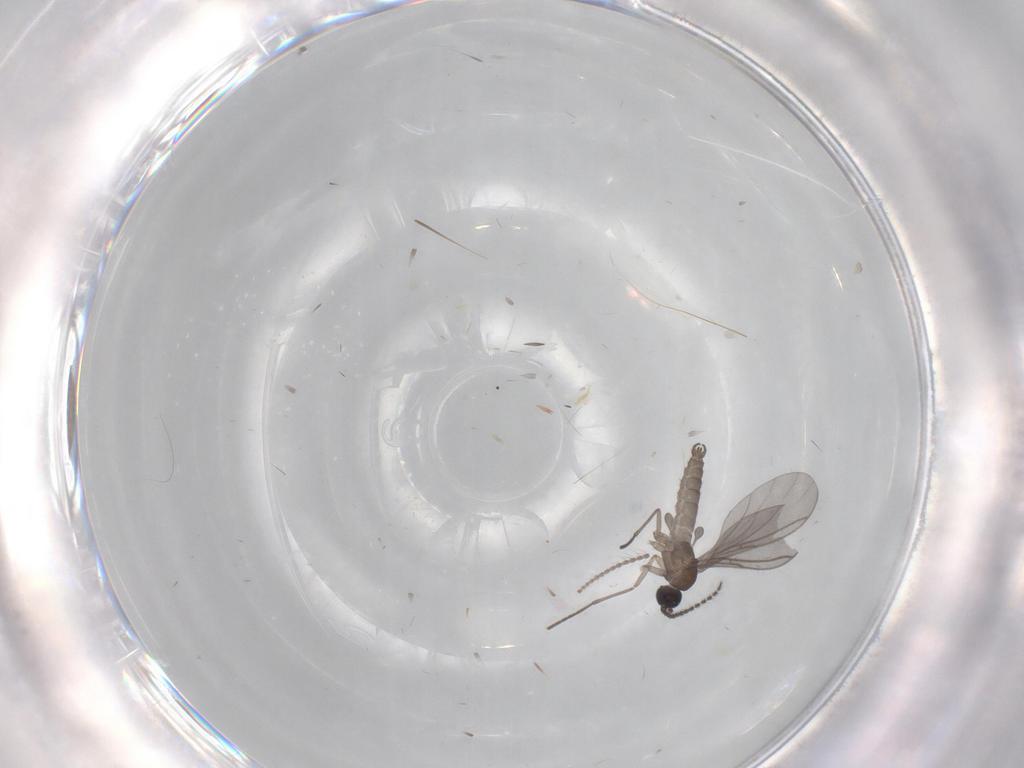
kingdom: Animalia
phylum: Arthropoda
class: Insecta
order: Diptera
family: Limoniidae
